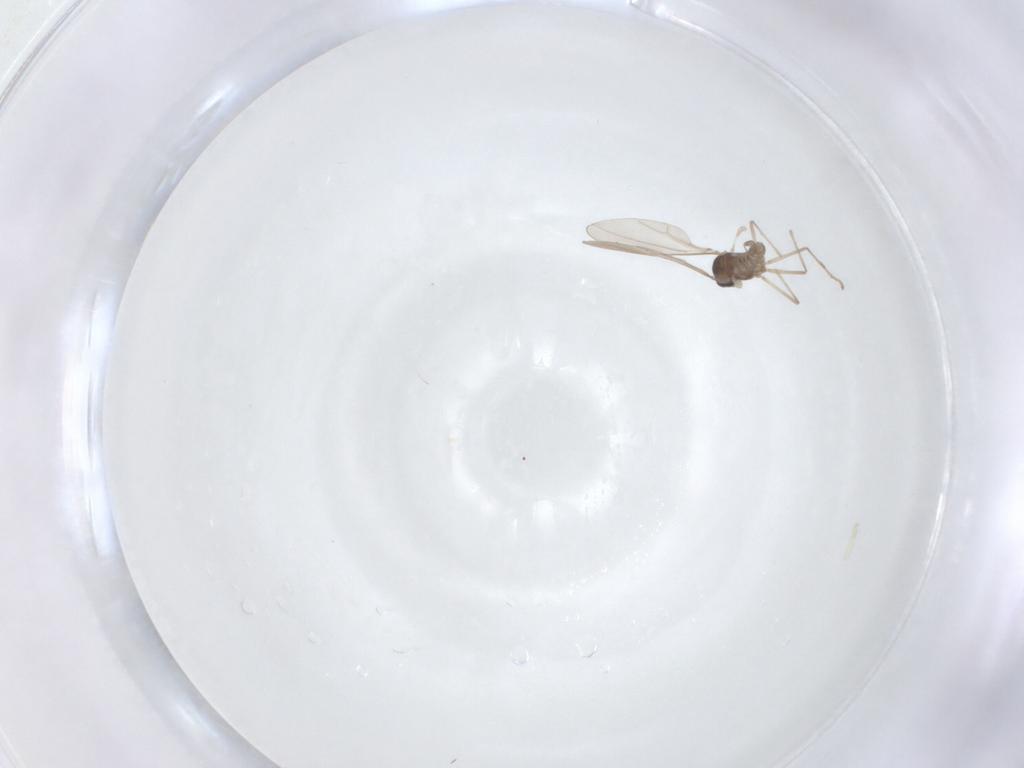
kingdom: Animalia
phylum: Arthropoda
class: Insecta
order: Diptera
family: Cecidomyiidae
